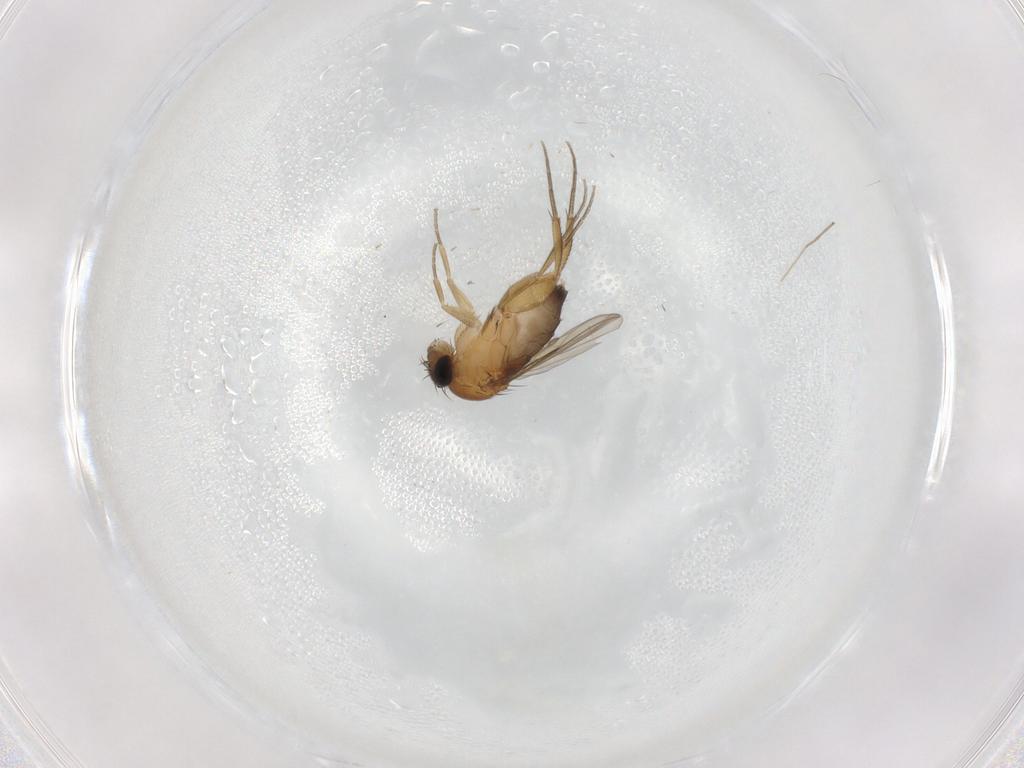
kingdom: Animalia
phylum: Arthropoda
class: Insecta
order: Diptera
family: Phoridae
